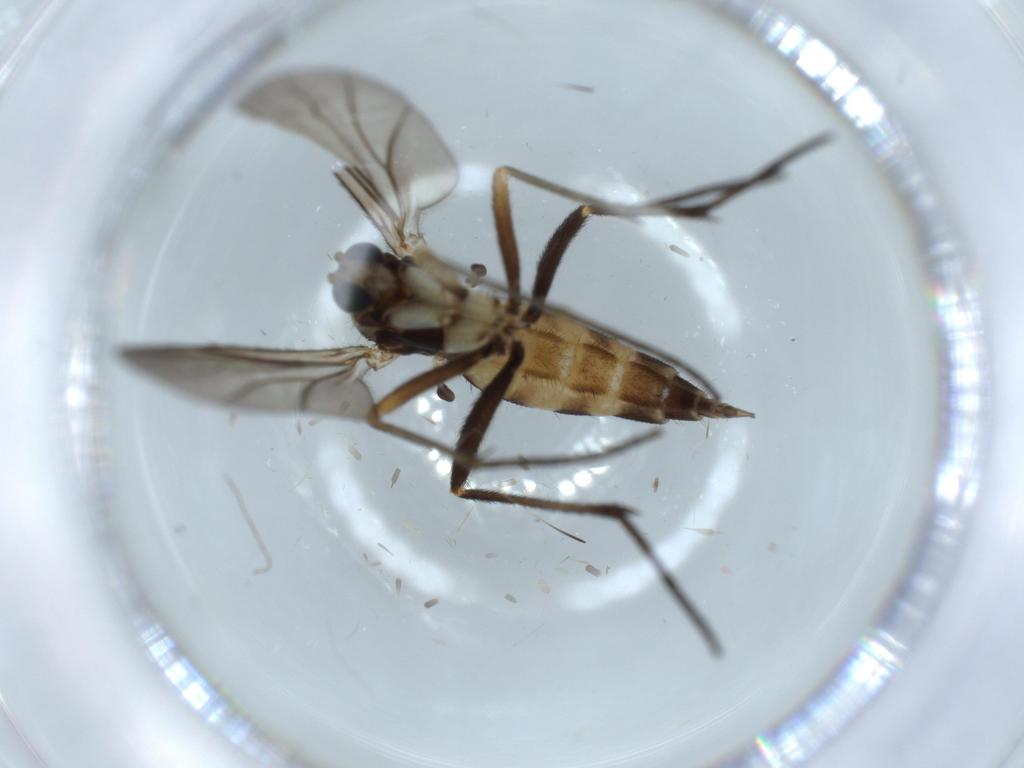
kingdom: Animalia
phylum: Arthropoda
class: Insecta
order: Diptera
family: Sciaridae
